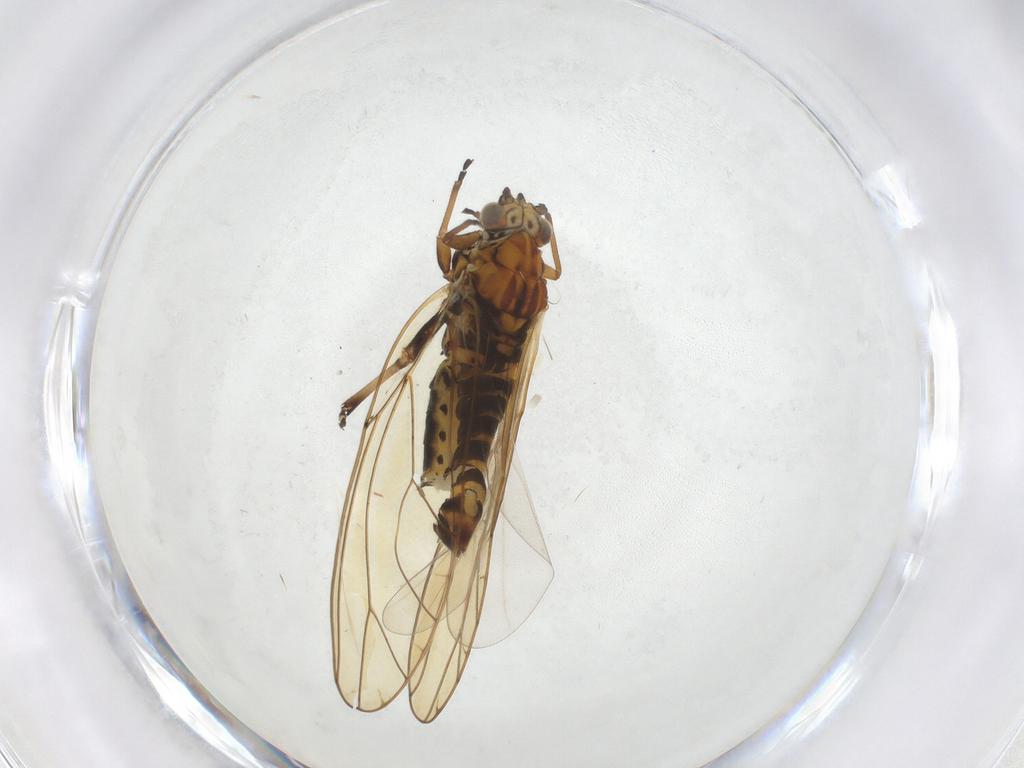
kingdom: Animalia
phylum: Arthropoda
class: Insecta
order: Hemiptera
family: Triozidae
